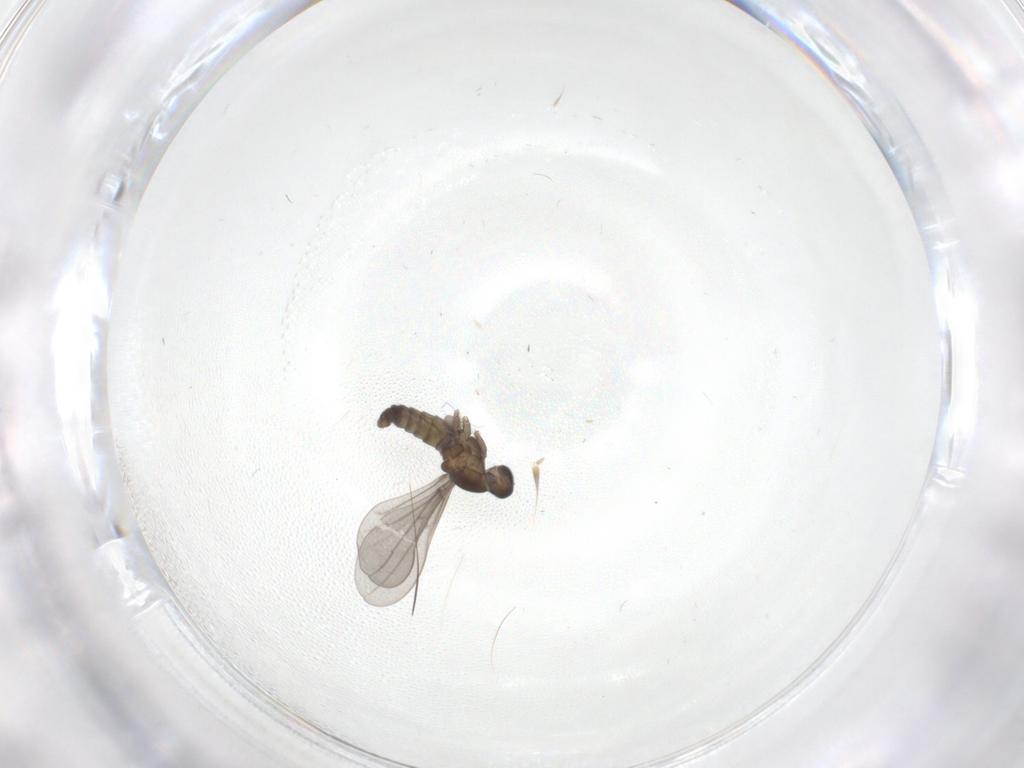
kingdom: Animalia
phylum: Arthropoda
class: Insecta
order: Diptera
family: Cecidomyiidae
